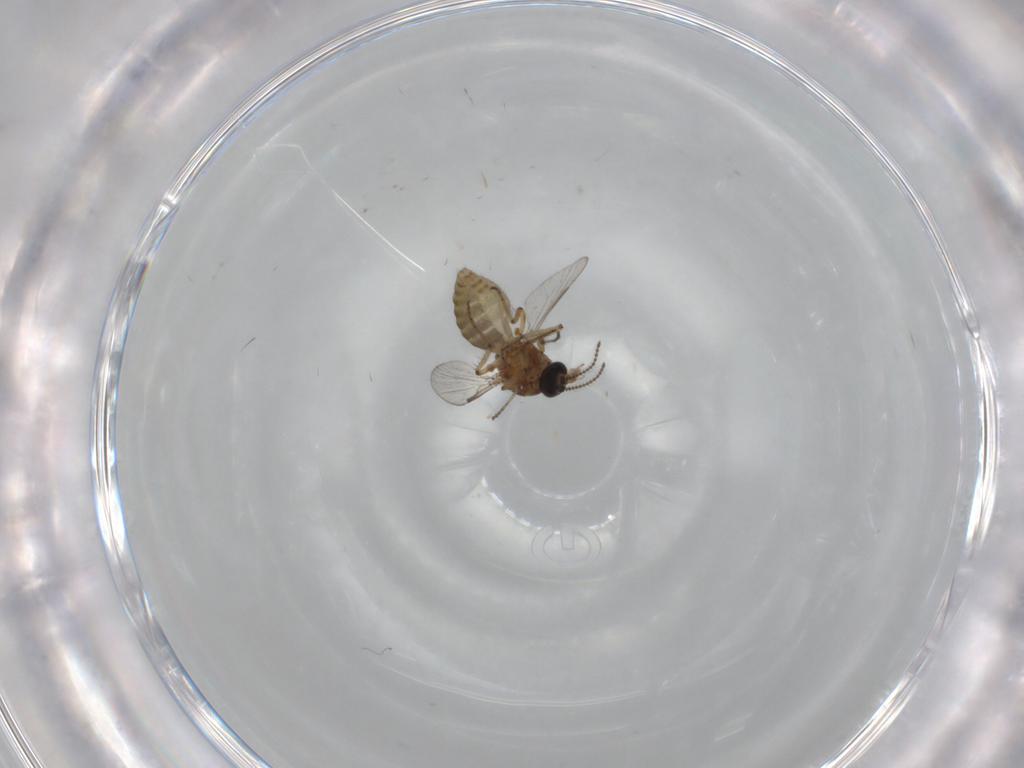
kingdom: Animalia
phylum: Arthropoda
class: Insecta
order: Diptera
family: Ceratopogonidae
